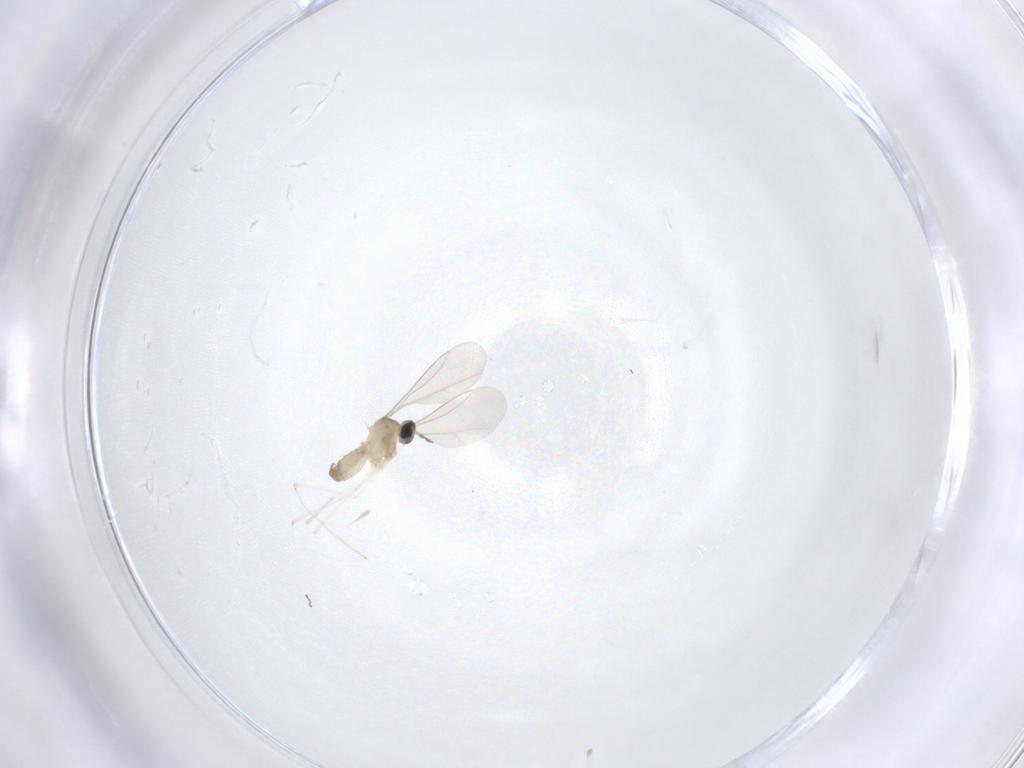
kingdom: Animalia
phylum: Arthropoda
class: Insecta
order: Diptera
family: Cecidomyiidae
